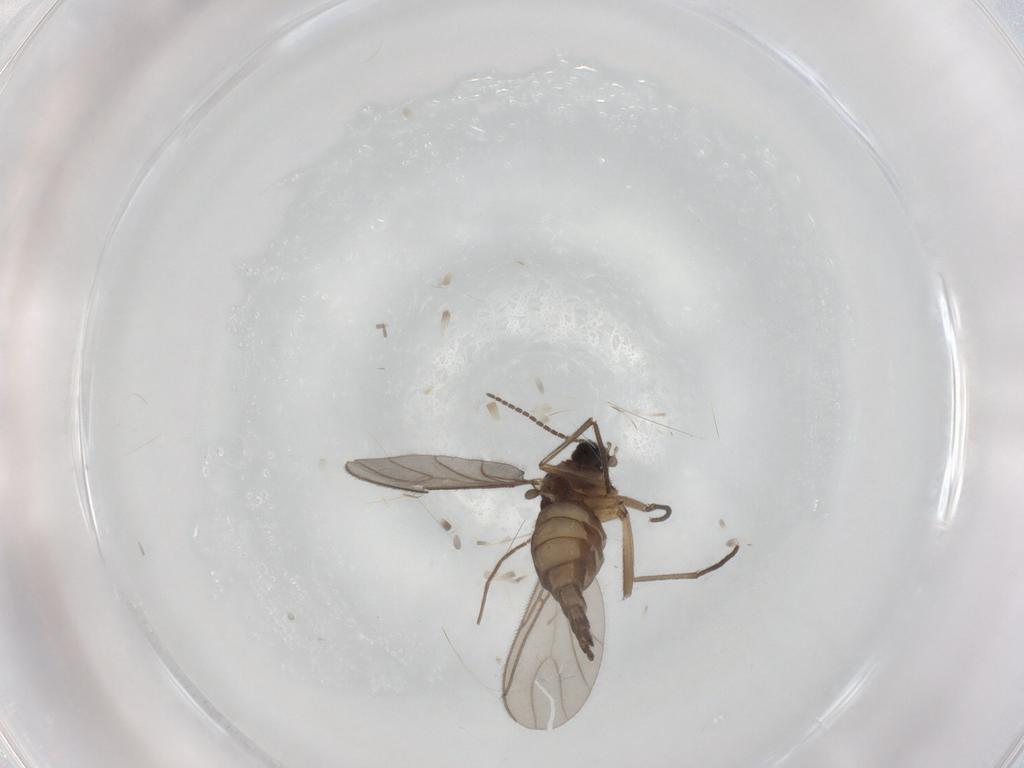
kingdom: Animalia
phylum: Arthropoda
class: Insecta
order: Diptera
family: Sciaridae
